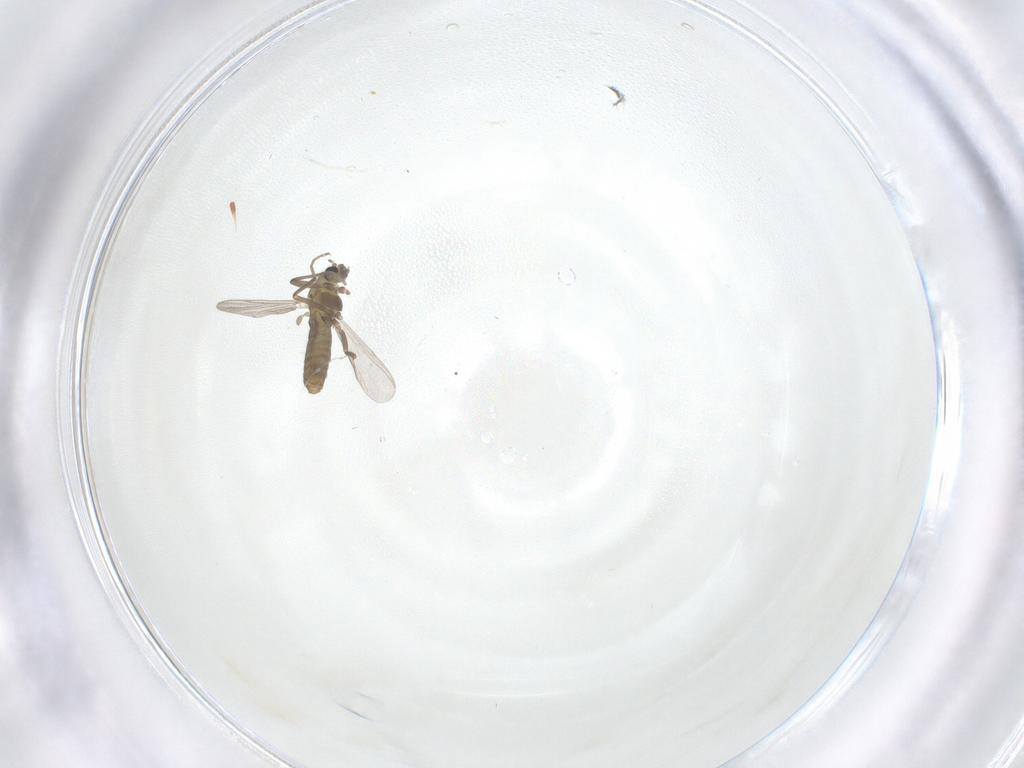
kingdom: Animalia
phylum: Arthropoda
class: Insecta
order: Diptera
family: Chironomidae
